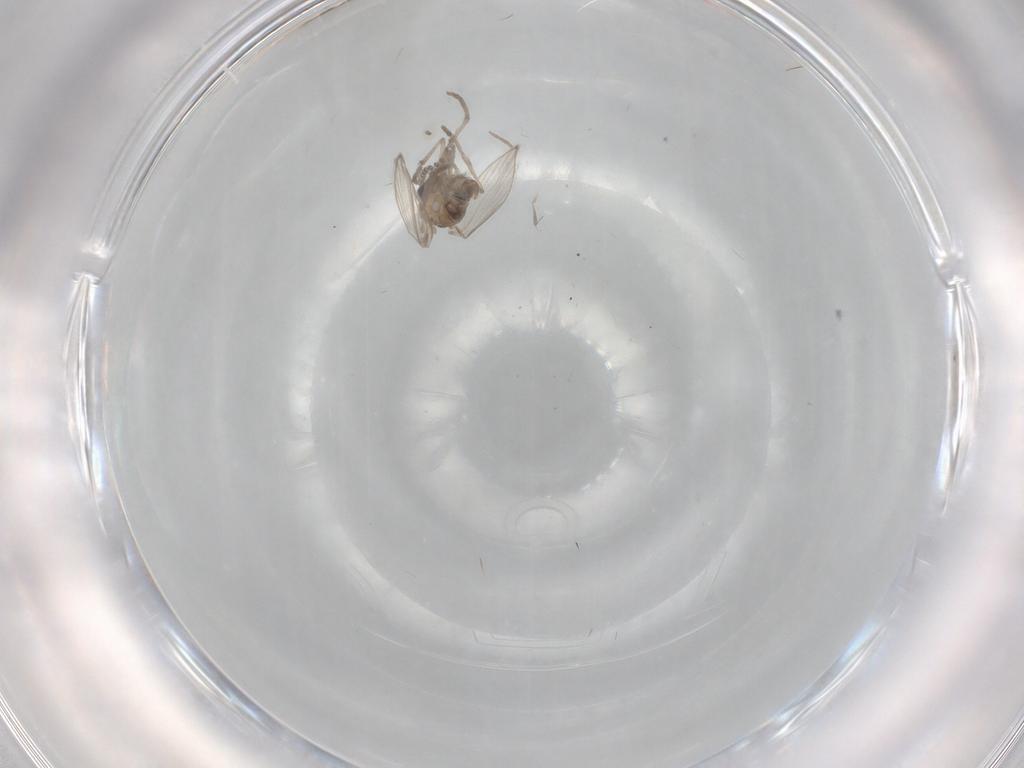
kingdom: Animalia
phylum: Arthropoda
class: Insecta
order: Diptera
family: Psychodidae
